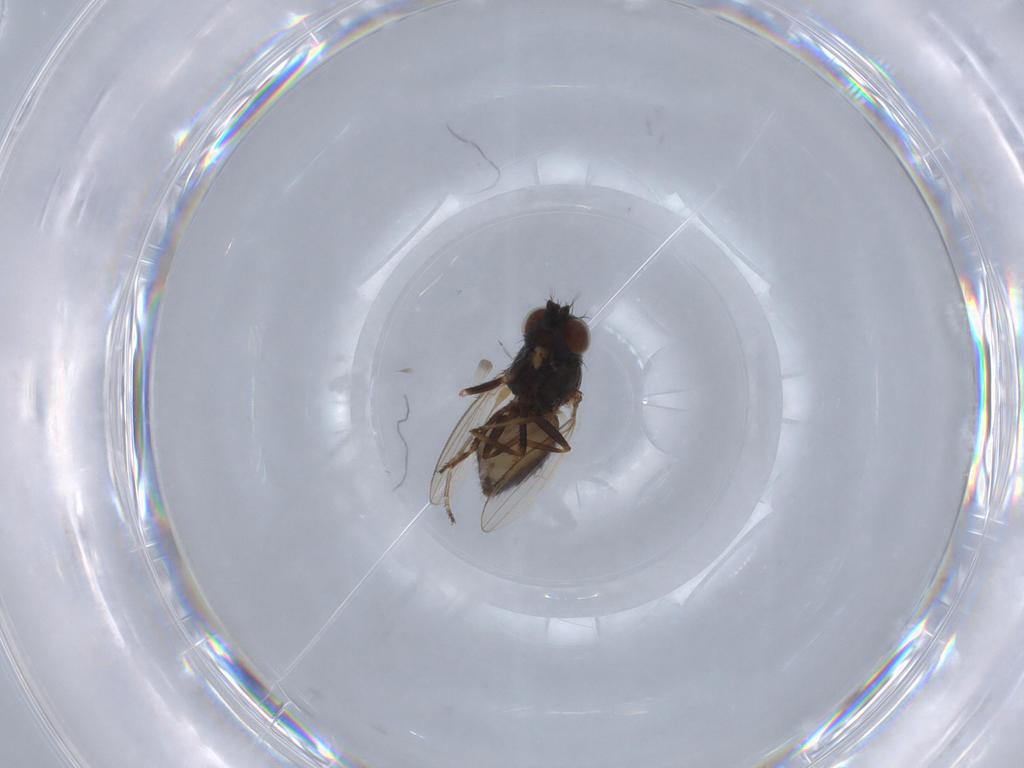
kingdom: Animalia
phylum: Arthropoda
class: Insecta
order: Diptera
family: Ephydridae
